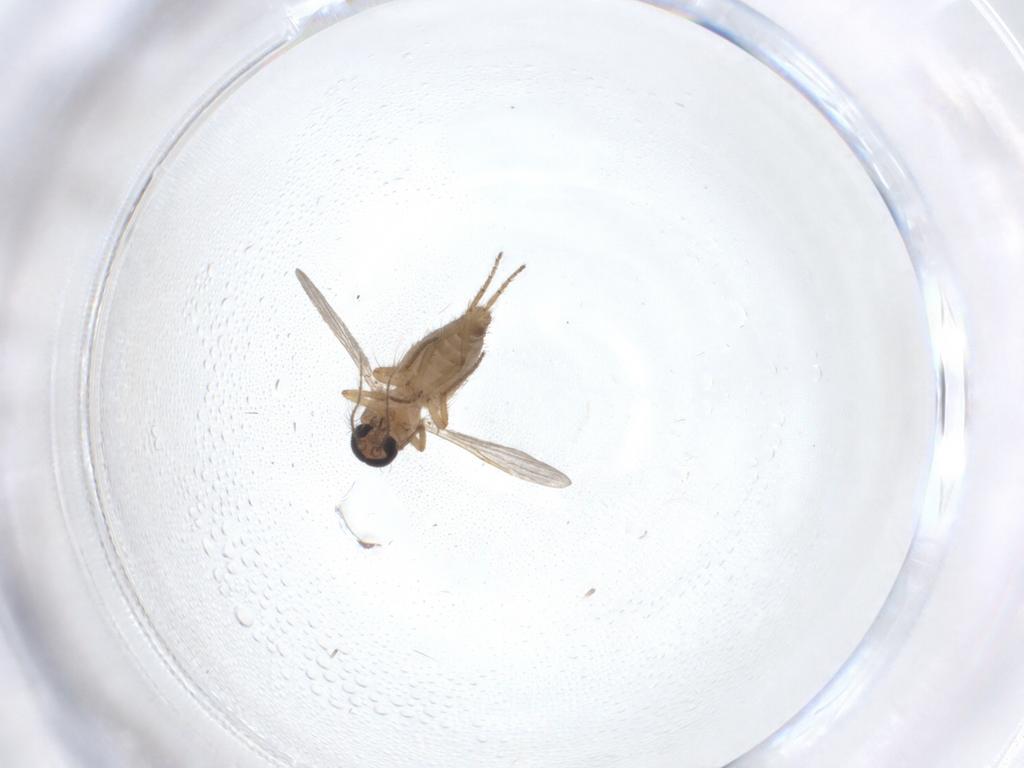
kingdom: Animalia
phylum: Arthropoda
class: Insecta
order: Diptera
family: Ceratopogonidae
